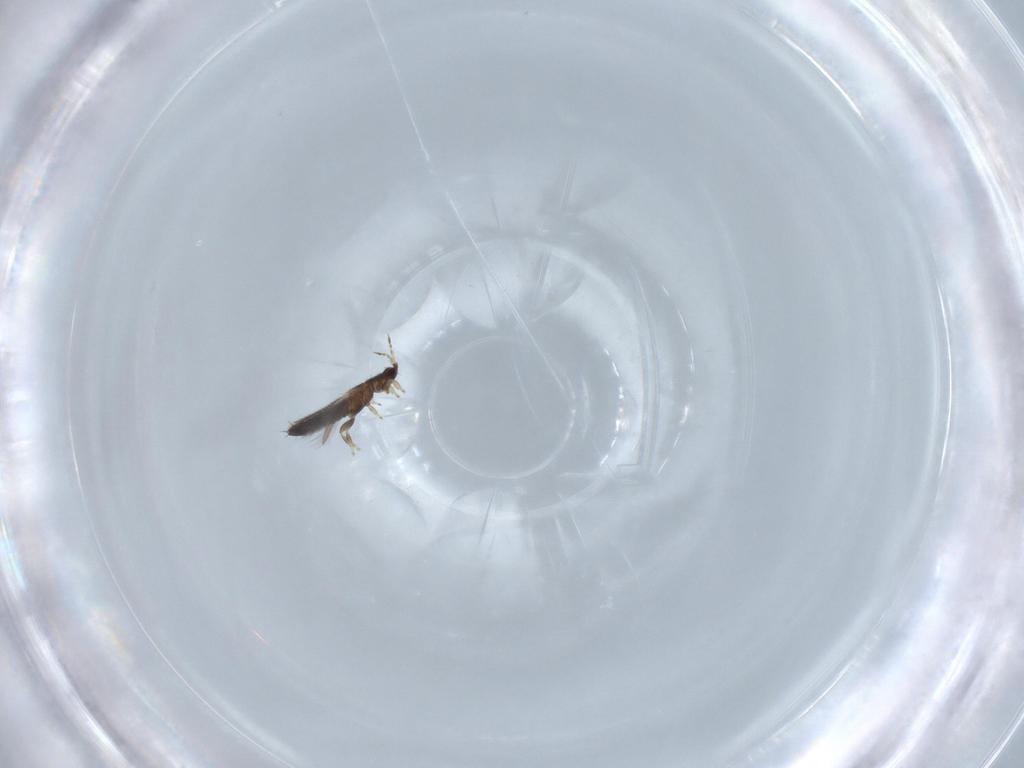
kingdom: Animalia
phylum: Arthropoda
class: Insecta
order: Thysanoptera
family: Thripidae
